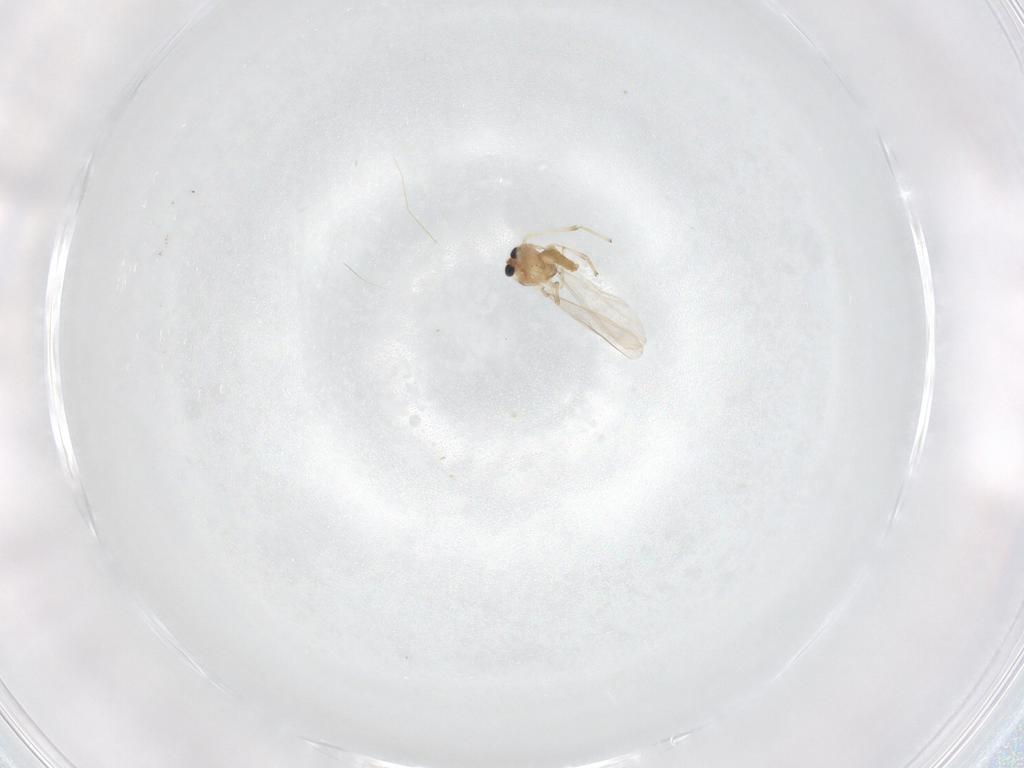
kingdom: Animalia
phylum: Arthropoda
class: Insecta
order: Diptera
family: Chironomidae
